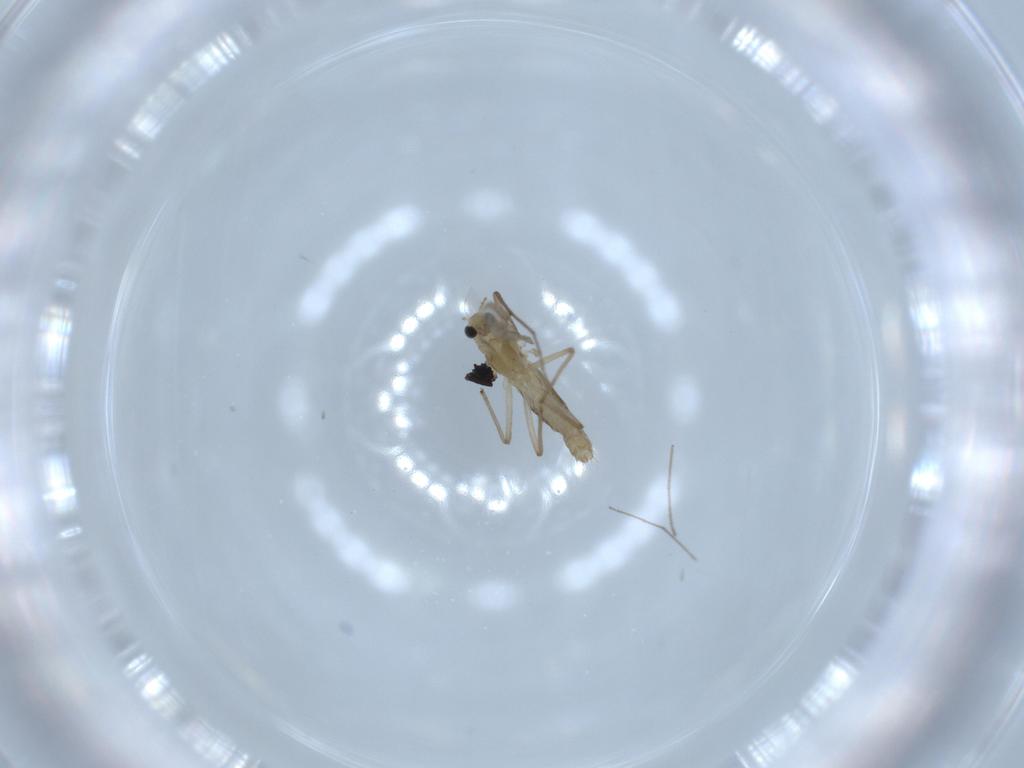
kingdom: Animalia
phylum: Arthropoda
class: Insecta
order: Diptera
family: Chironomidae
